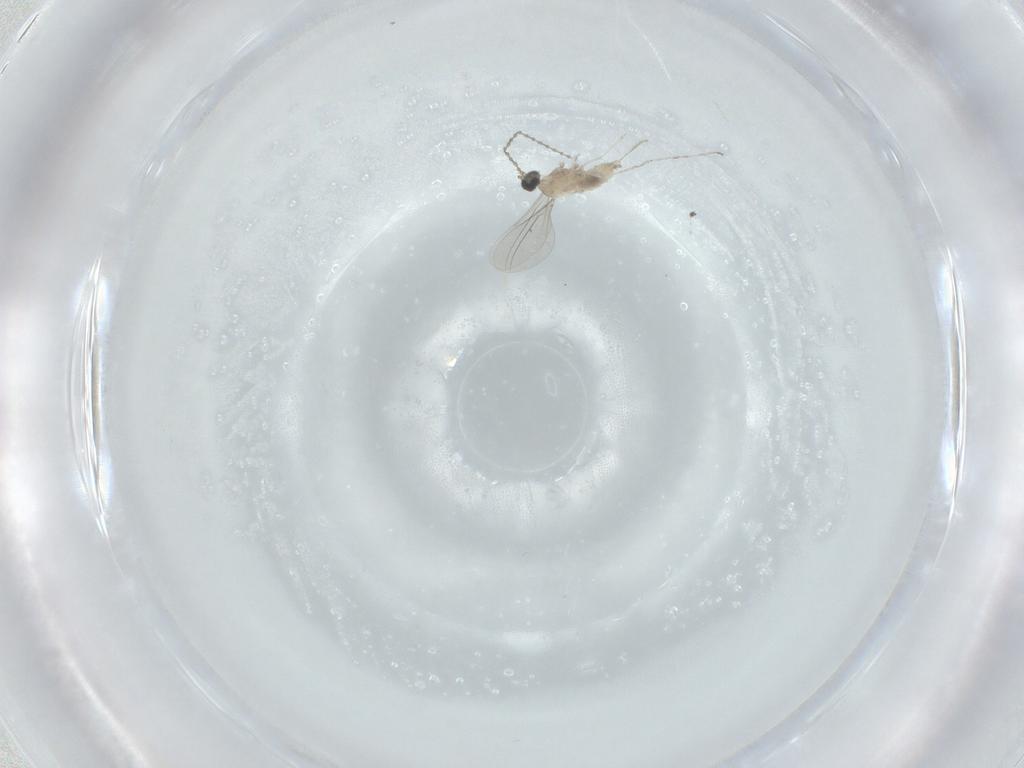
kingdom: Animalia
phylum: Arthropoda
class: Insecta
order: Diptera
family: Cecidomyiidae
